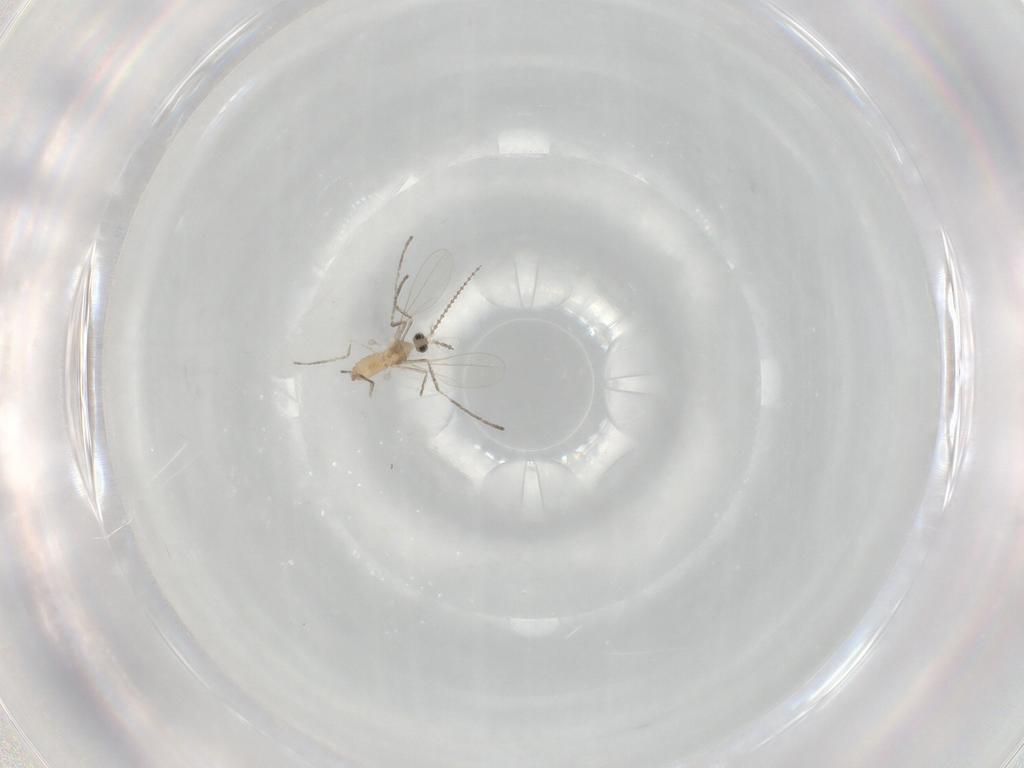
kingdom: Animalia
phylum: Arthropoda
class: Insecta
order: Diptera
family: Cecidomyiidae
